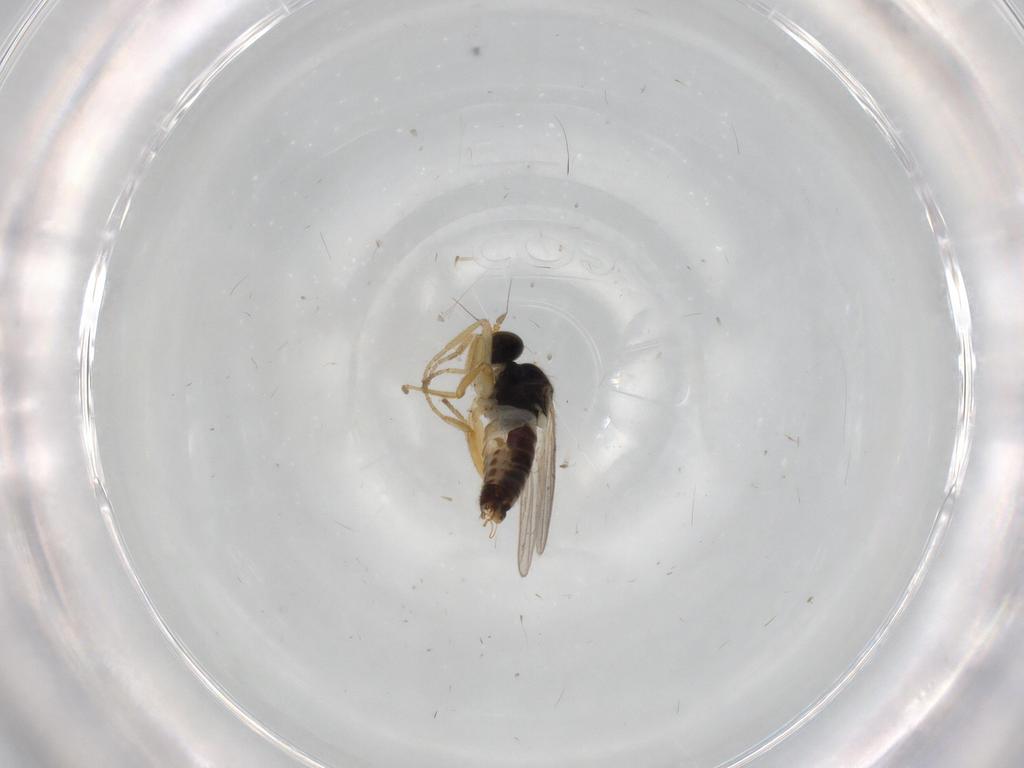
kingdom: Animalia
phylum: Arthropoda
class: Insecta
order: Diptera
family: Hybotidae
